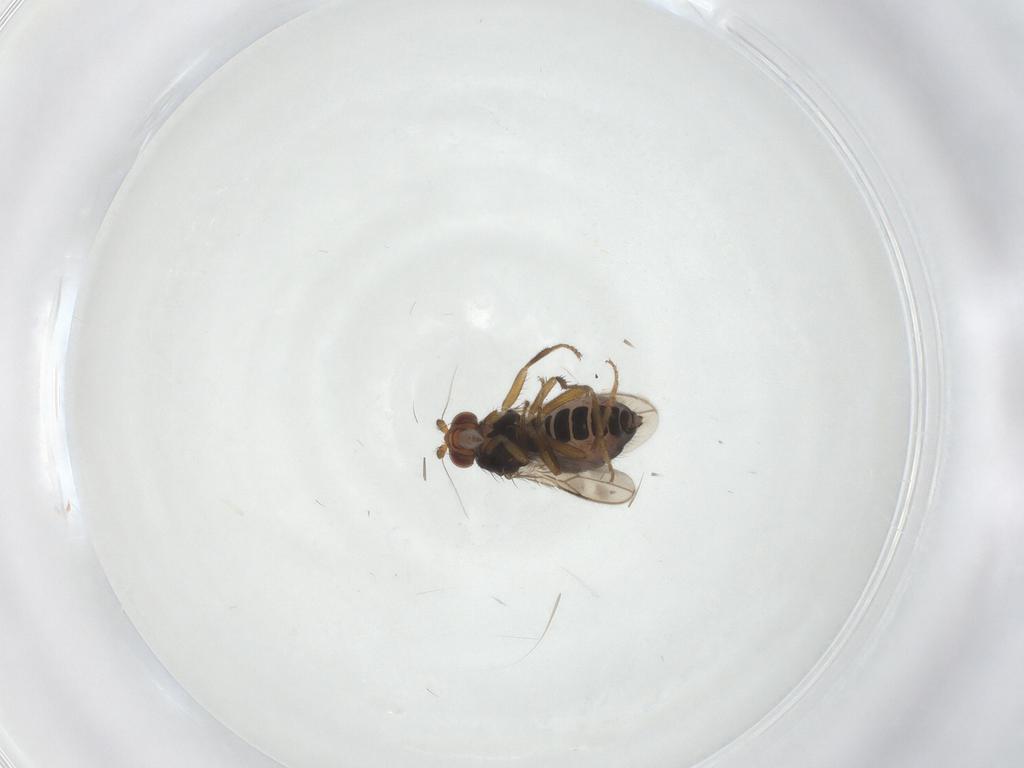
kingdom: Animalia
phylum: Arthropoda
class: Insecta
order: Diptera
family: Sphaeroceridae
